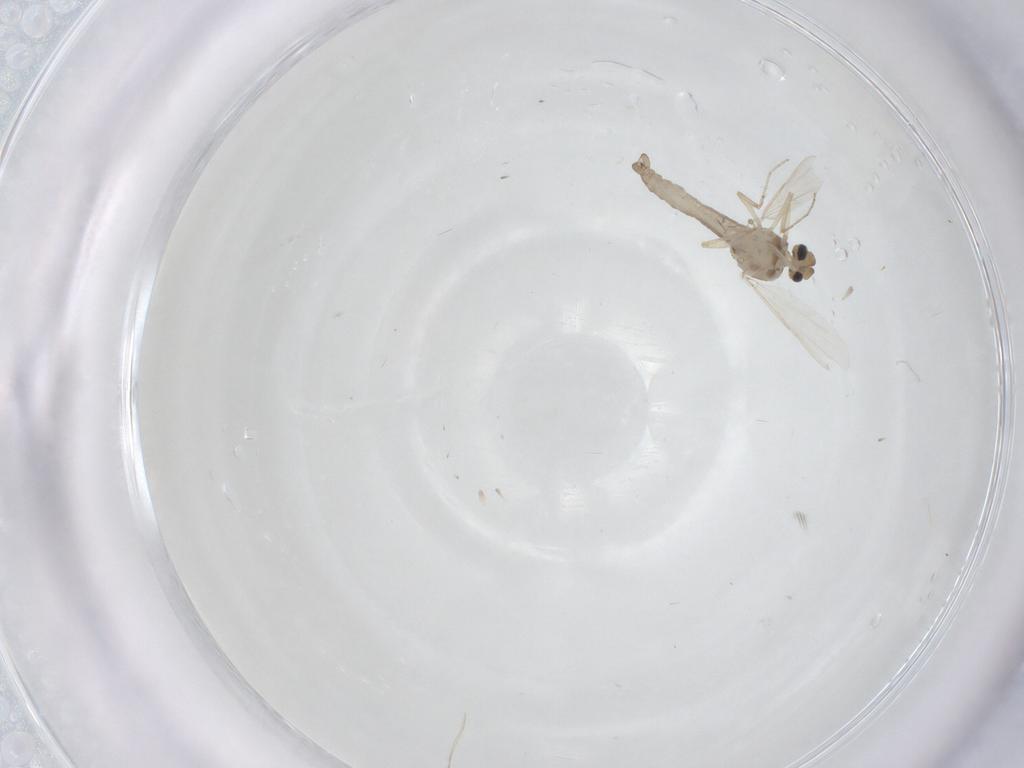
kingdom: Animalia
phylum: Arthropoda
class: Insecta
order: Diptera
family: Ceratopogonidae
